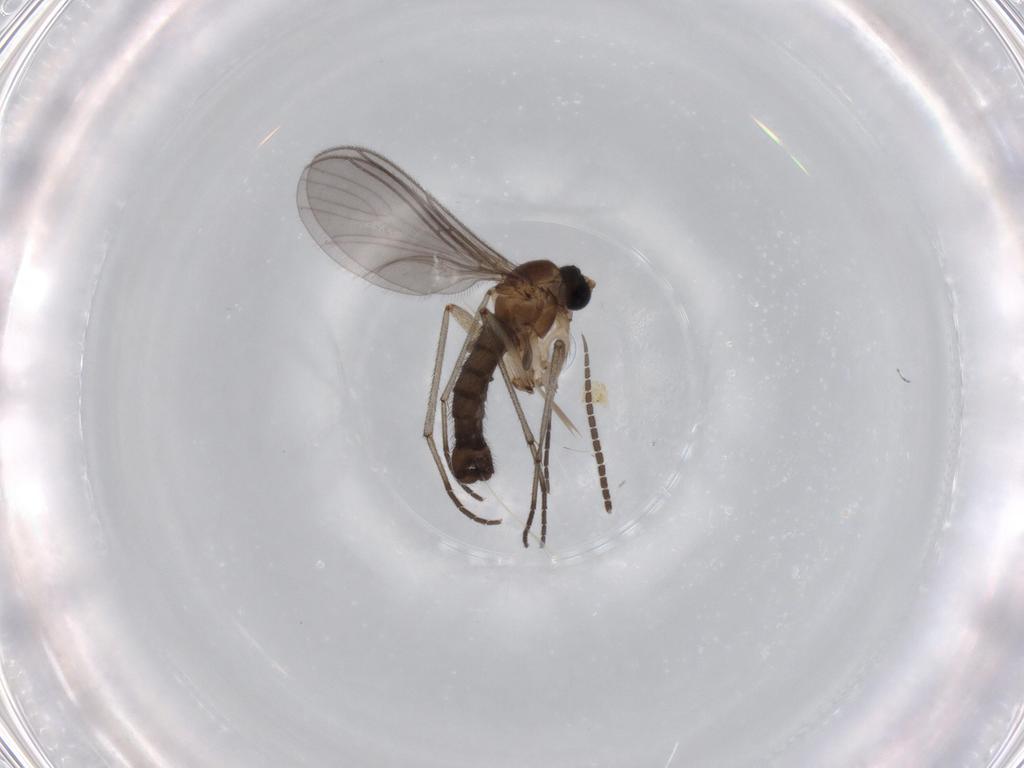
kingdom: Animalia
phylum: Arthropoda
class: Insecta
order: Diptera
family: Sciaridae
